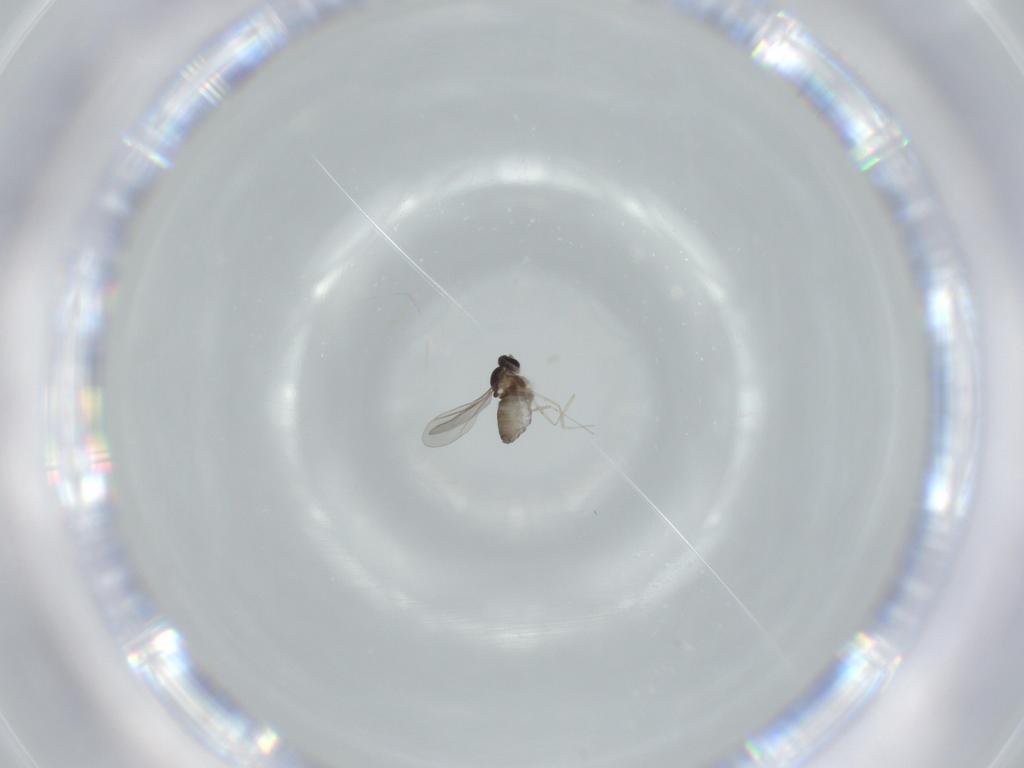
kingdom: Animalia
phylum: Arthropoda
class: Insecta
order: Diptera
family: Cecidomyiidae
